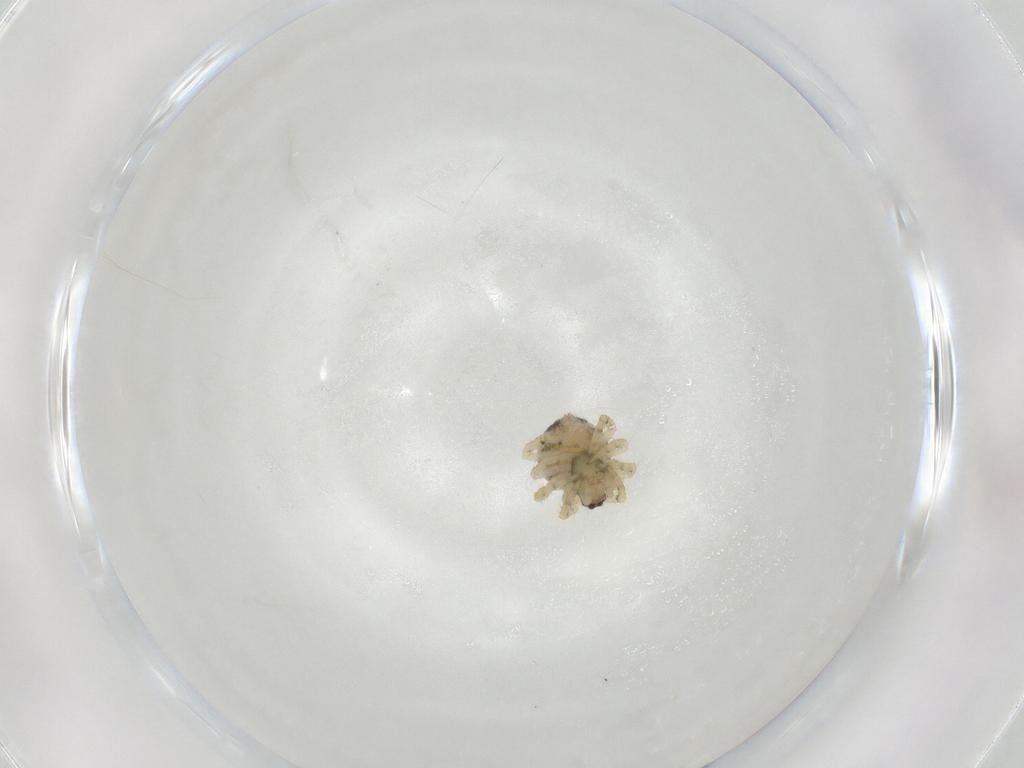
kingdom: Animalia
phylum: Arthropoda
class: Arachnida
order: Araneae
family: Theridiidae
